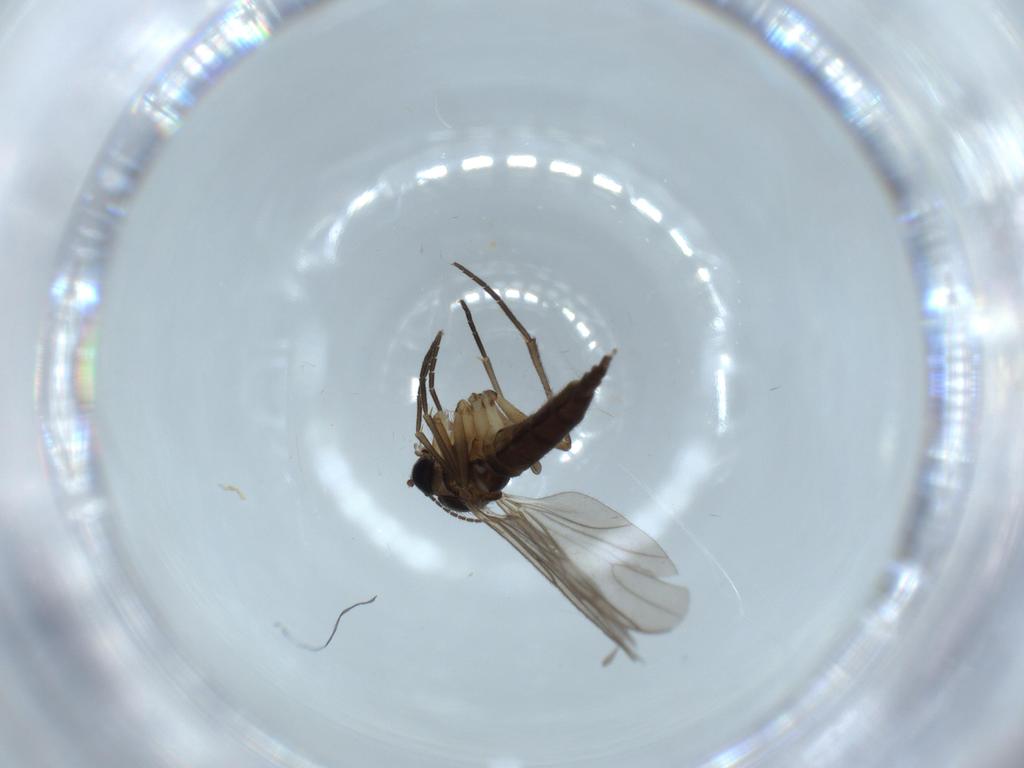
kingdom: Animalia
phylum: Arthropoda
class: Insecta
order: Diptera
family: Sciaridae
